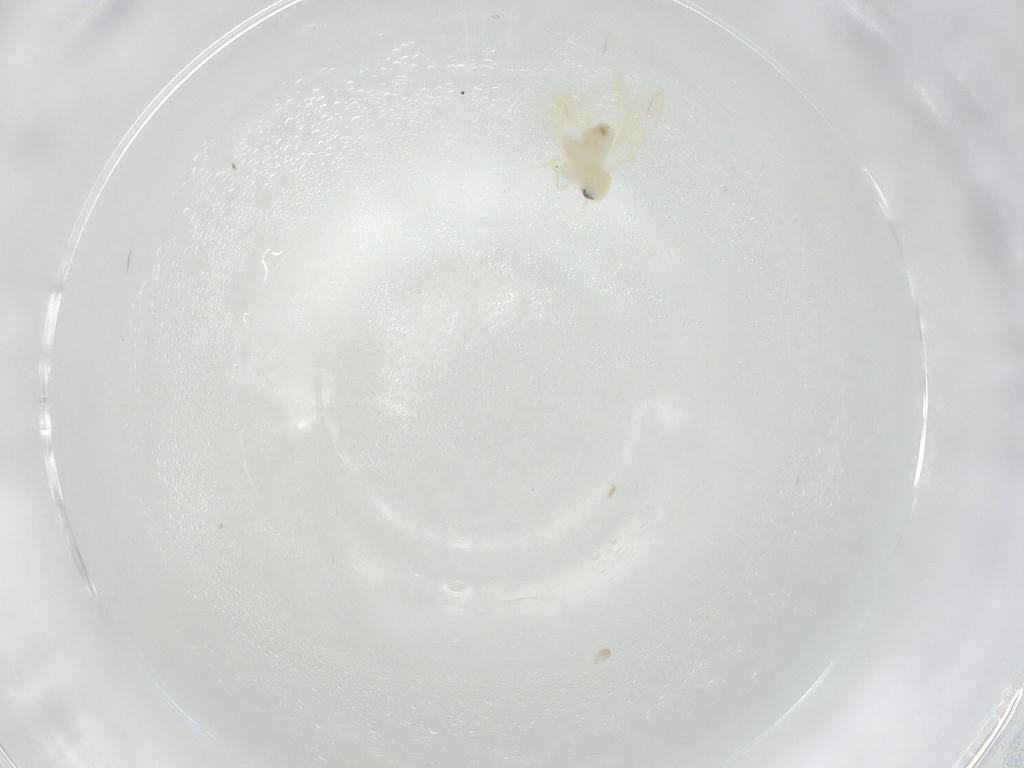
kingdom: Animalia
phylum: Arthropoda
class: Insecta
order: Hemiptera
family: Aleyrodidae
